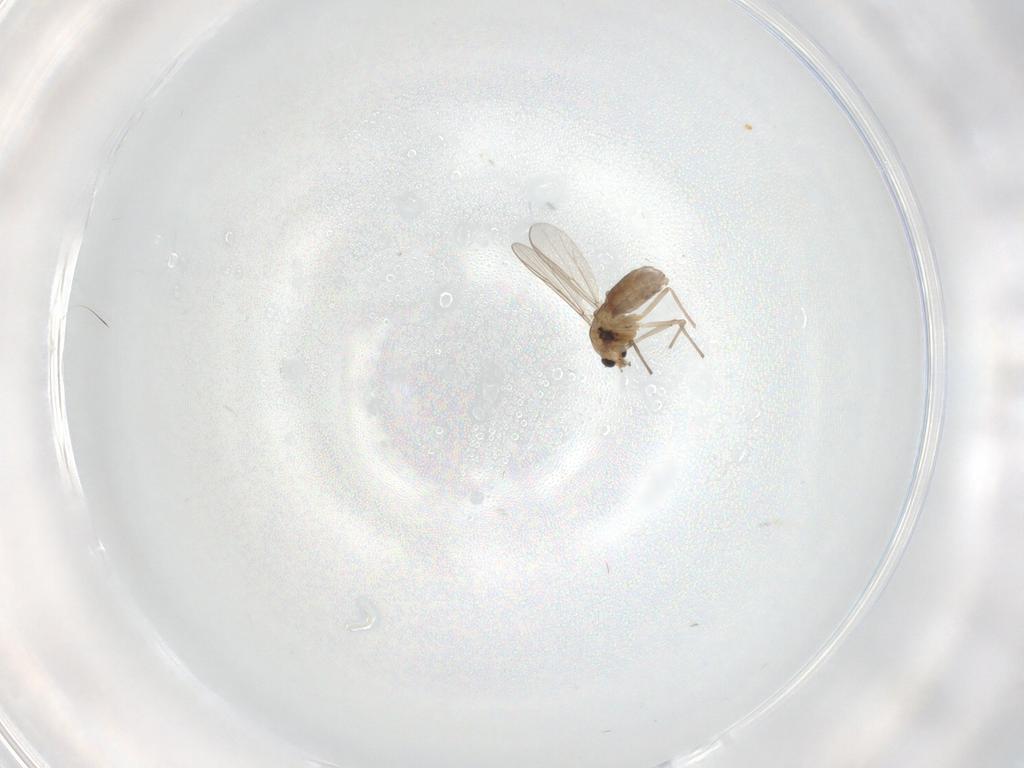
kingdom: Animalia
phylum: Arthropoda
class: Insecta
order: Diptera
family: Chironomidae
